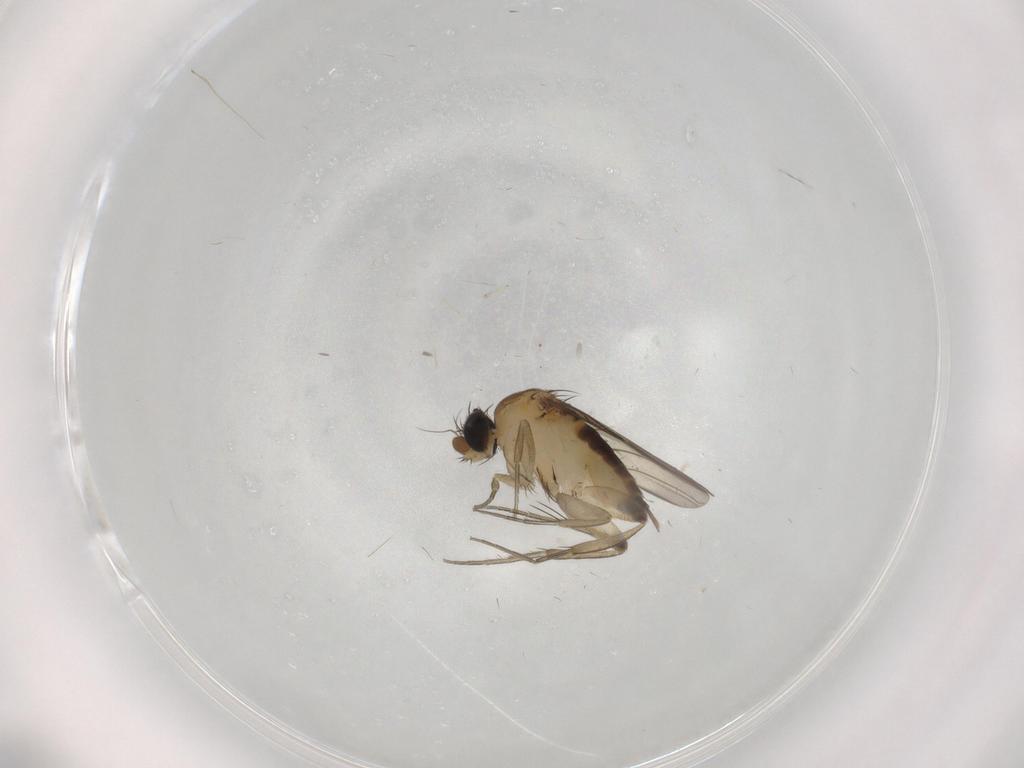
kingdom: Animalia
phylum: Arthropoda
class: Insecta
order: Diptera
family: Phoridae
